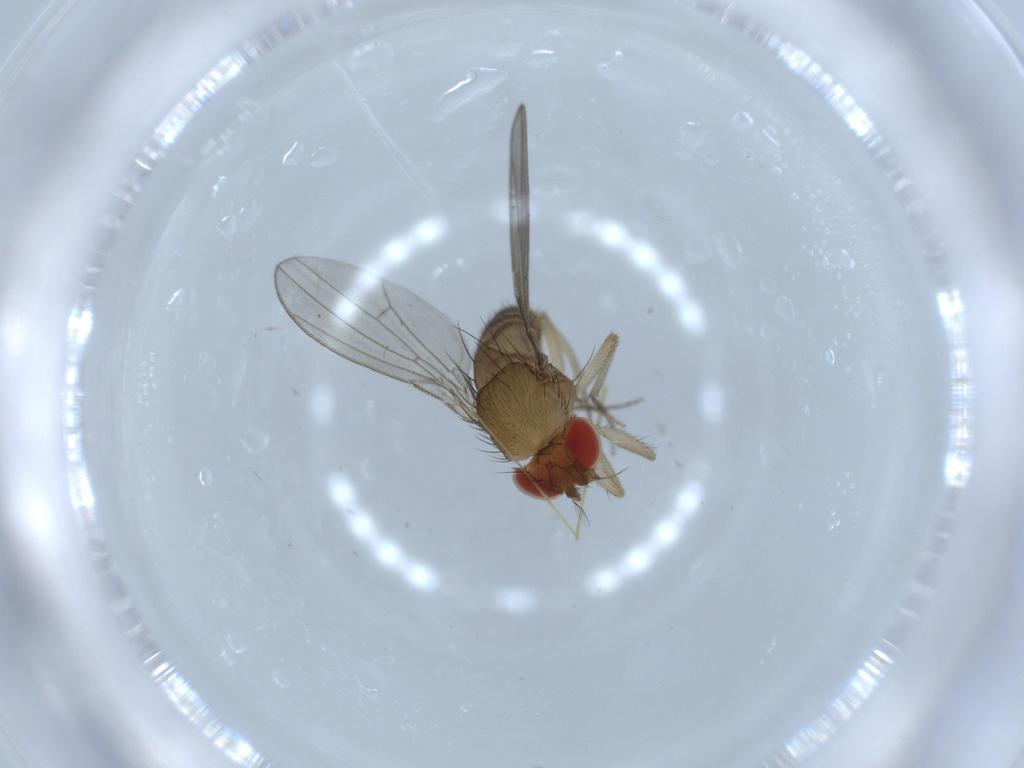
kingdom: Animalia
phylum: Arthropoda
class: Insecta
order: Diptera
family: Drosophilidae
